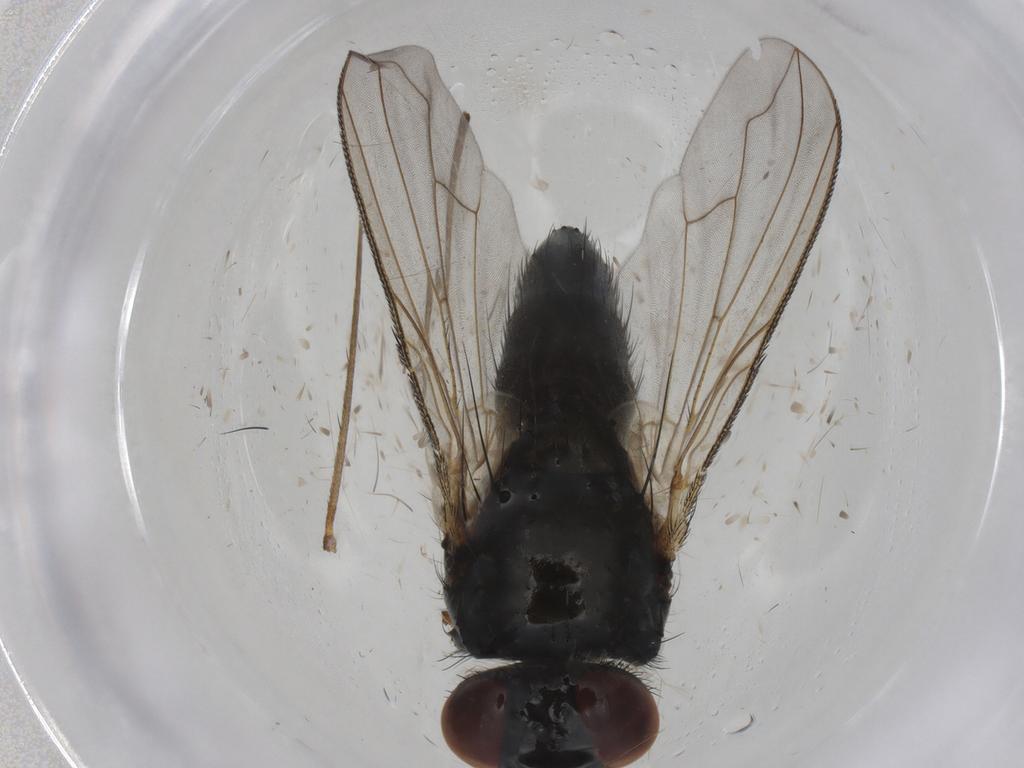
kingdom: Animalia
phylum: Arthropoda
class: Insecta
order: Diptera
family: Tachinidae
